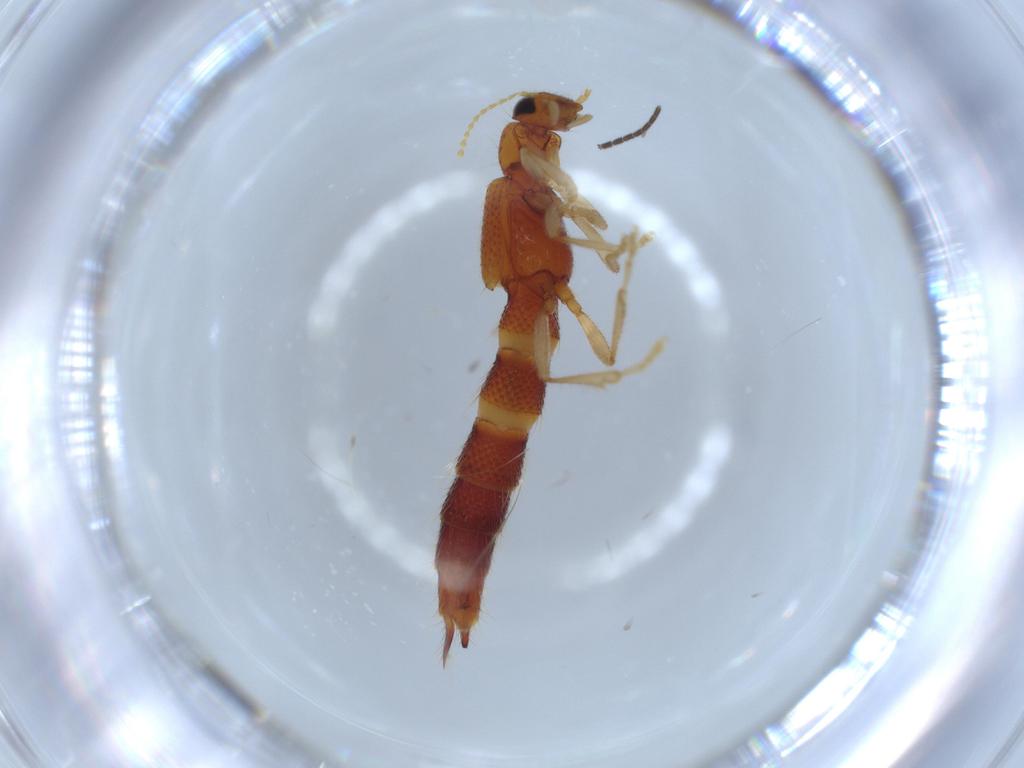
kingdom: Animalia
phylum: Arthropoda
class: Insecta
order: Coleoptera
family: Staphylinidae
